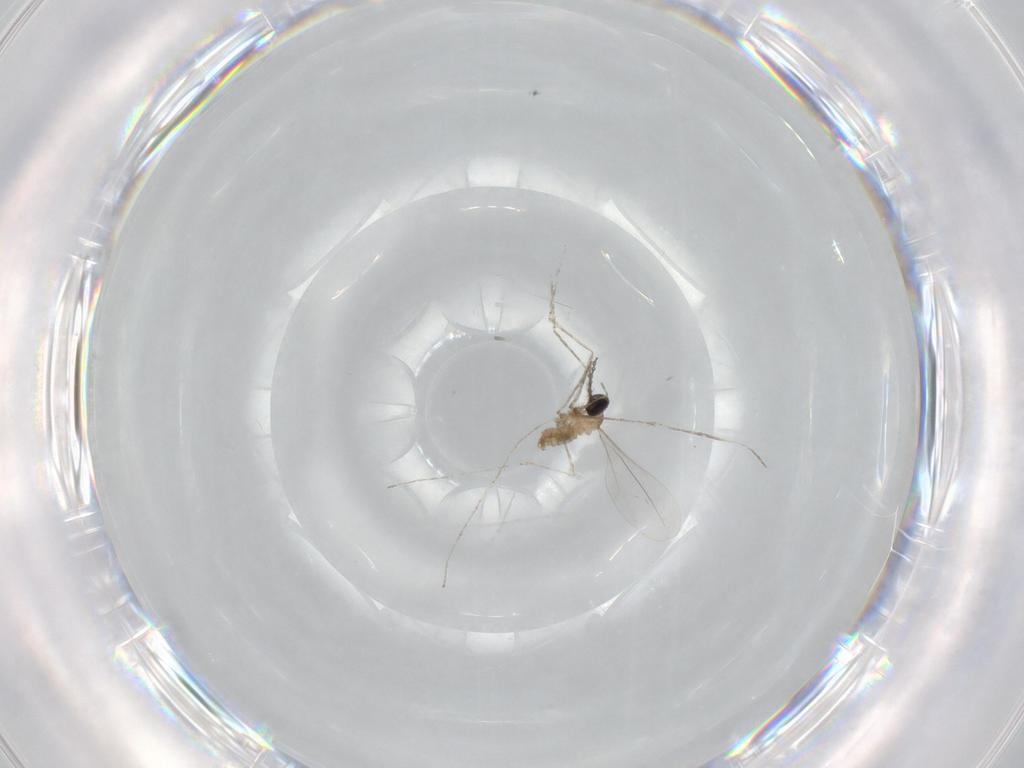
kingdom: Animalia
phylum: Arthropoda
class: Insecta
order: Diptera
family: Cecidomyiidae
